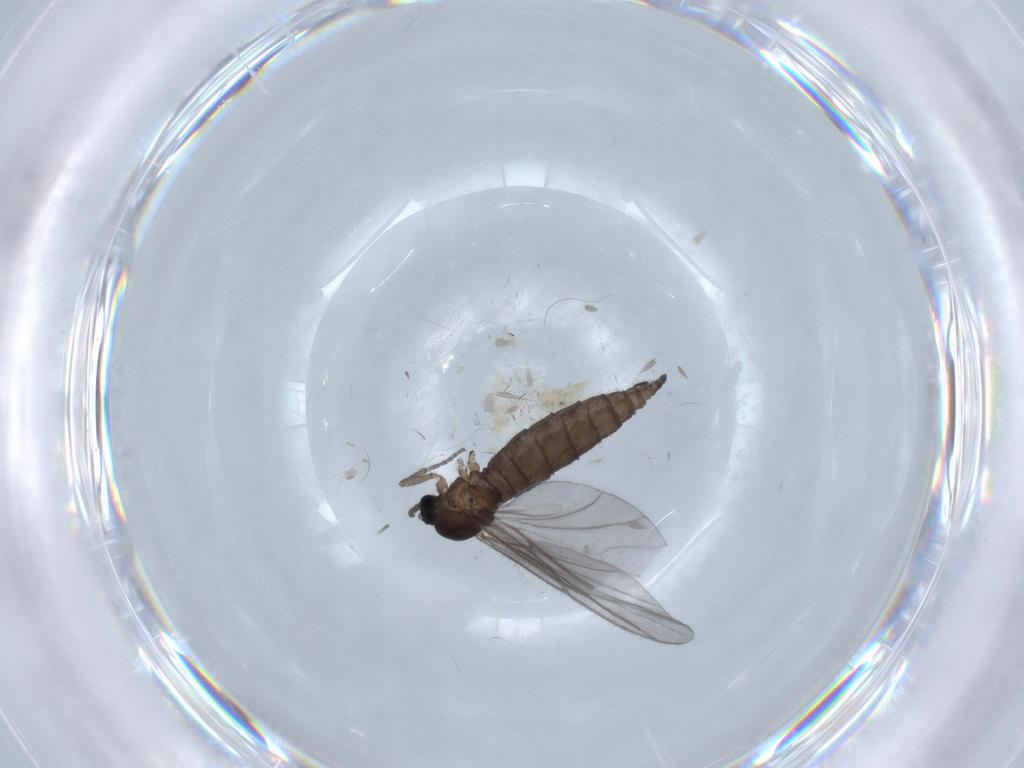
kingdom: Animalia
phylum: Arthropoda
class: Insecta
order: Diptera
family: Sciaridae
